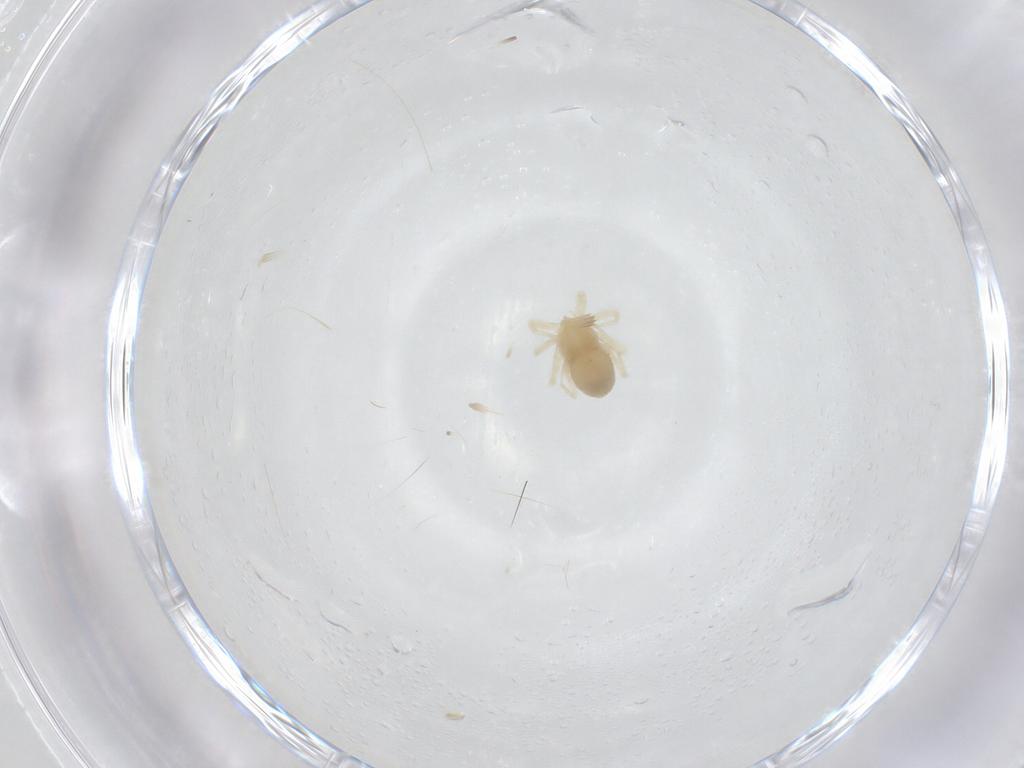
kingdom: Animalia
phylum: Arthropoda
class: Arachnida
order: Trombidiformes
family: Anystidae
